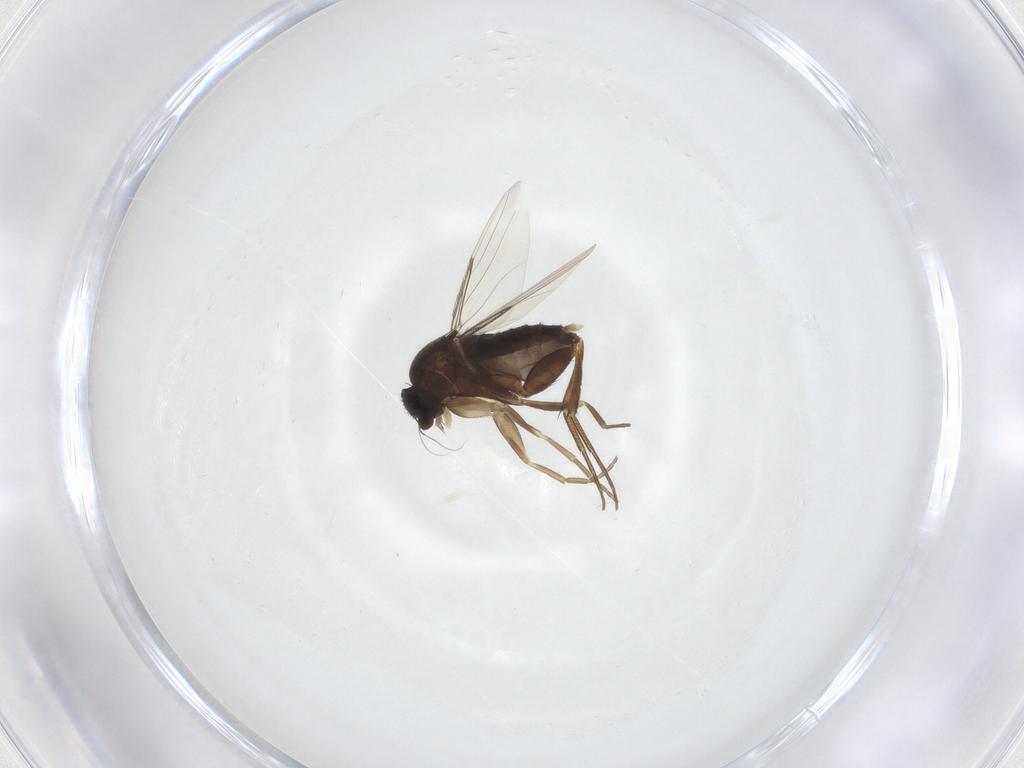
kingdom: Animalia
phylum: Arthropoda
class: Insecta
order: Diptera
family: Phoridae
